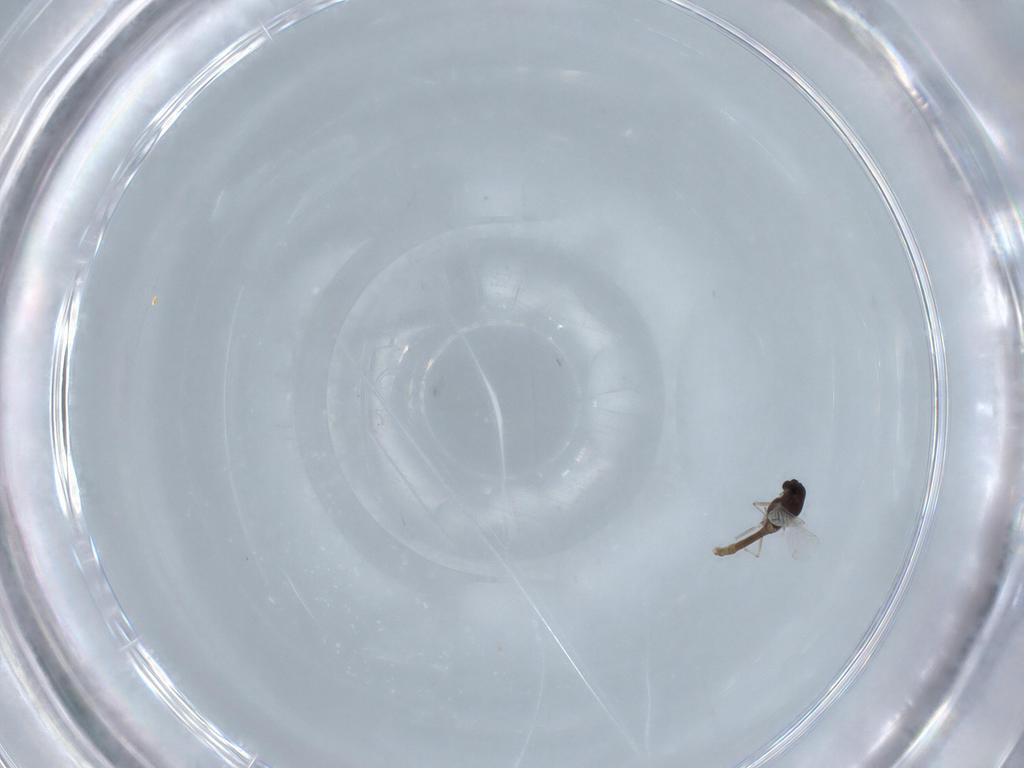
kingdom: Animalia
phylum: Arthropoda
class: Insecta
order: Diptera
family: Chironomidae
